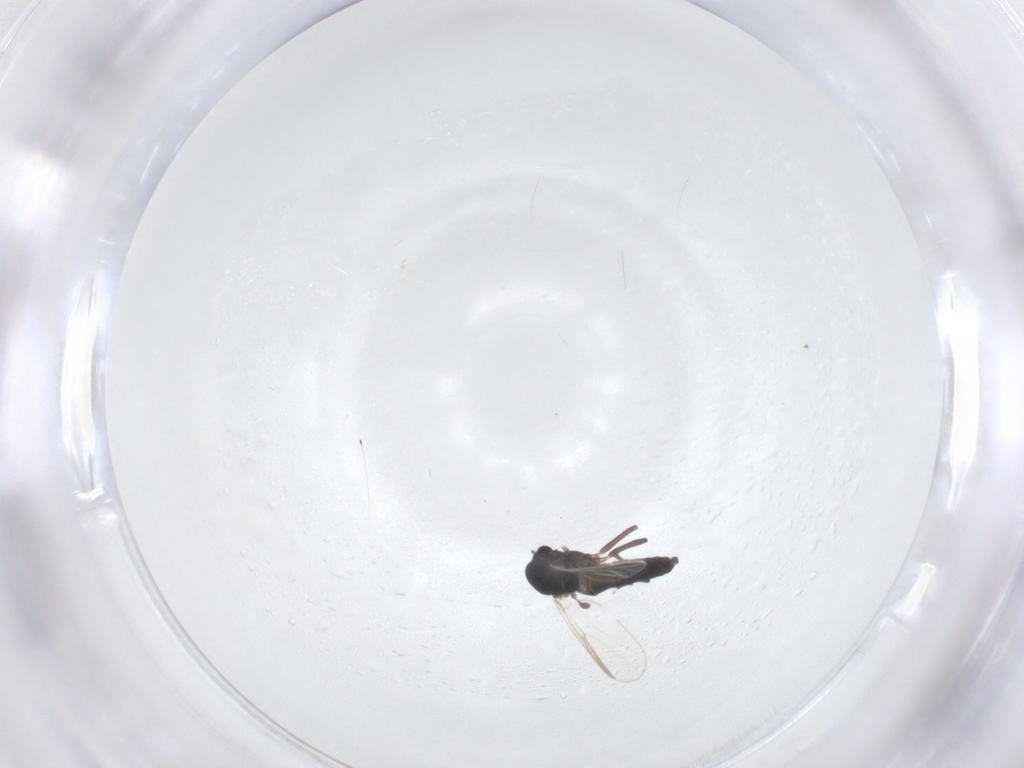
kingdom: Animalia
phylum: Arthropoda
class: Insecta
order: Diptera
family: Chironomidae
